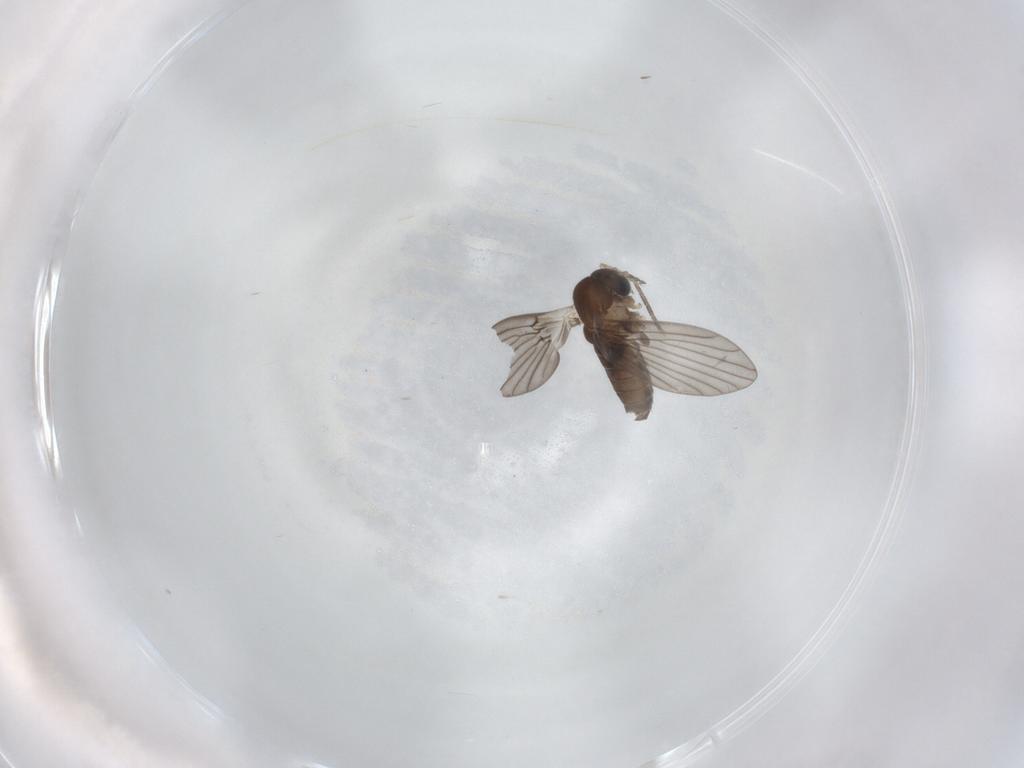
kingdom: Animalia
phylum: Arthropoda
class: Insecta
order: Diptera
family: Psychodidae
